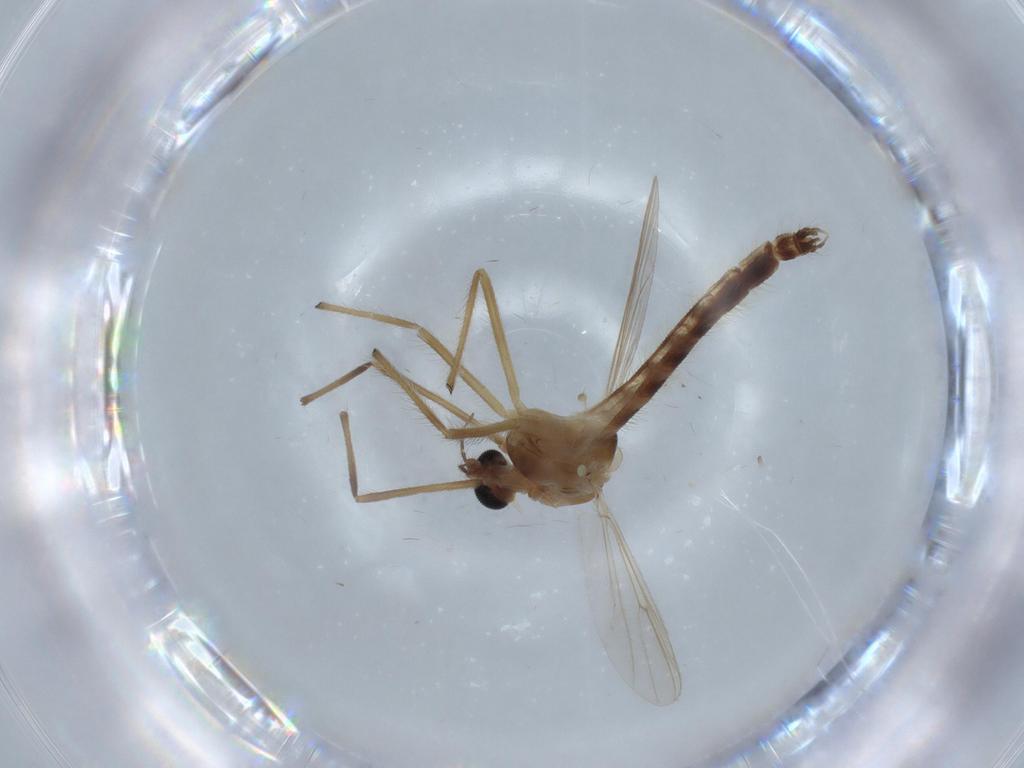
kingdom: Animalia
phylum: Arthropoda
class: Insecta
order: Diptera
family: Chironomidae
